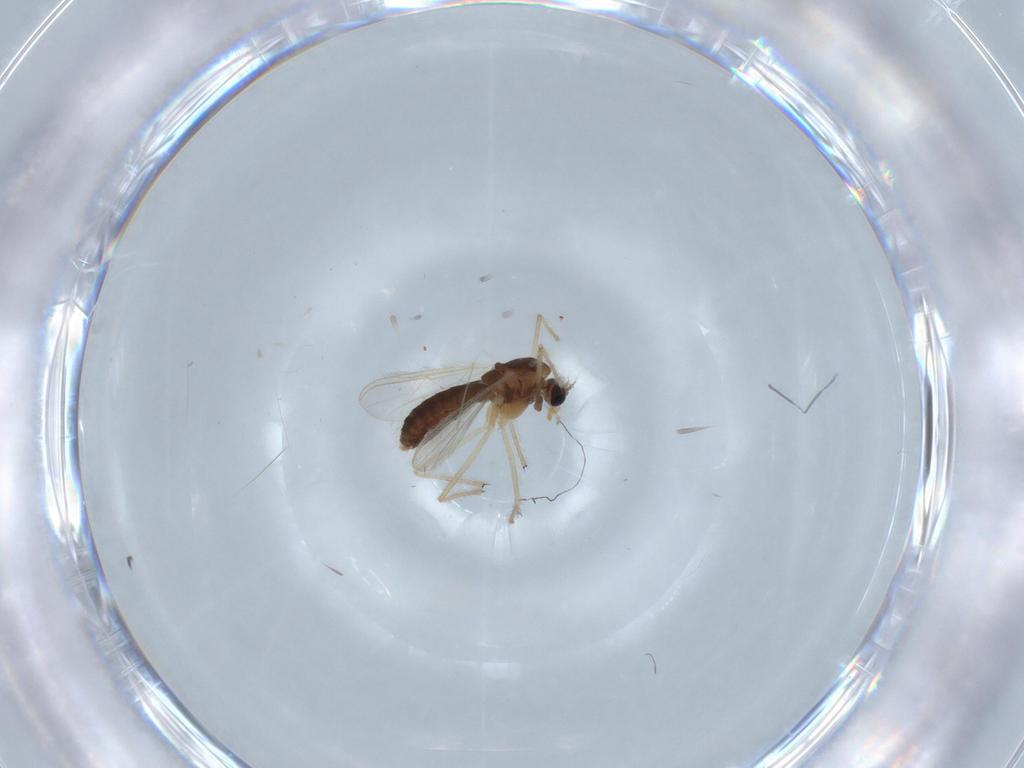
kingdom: Animalia
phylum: Arthropoda
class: Insecta
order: Diptera
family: Chironomidae
